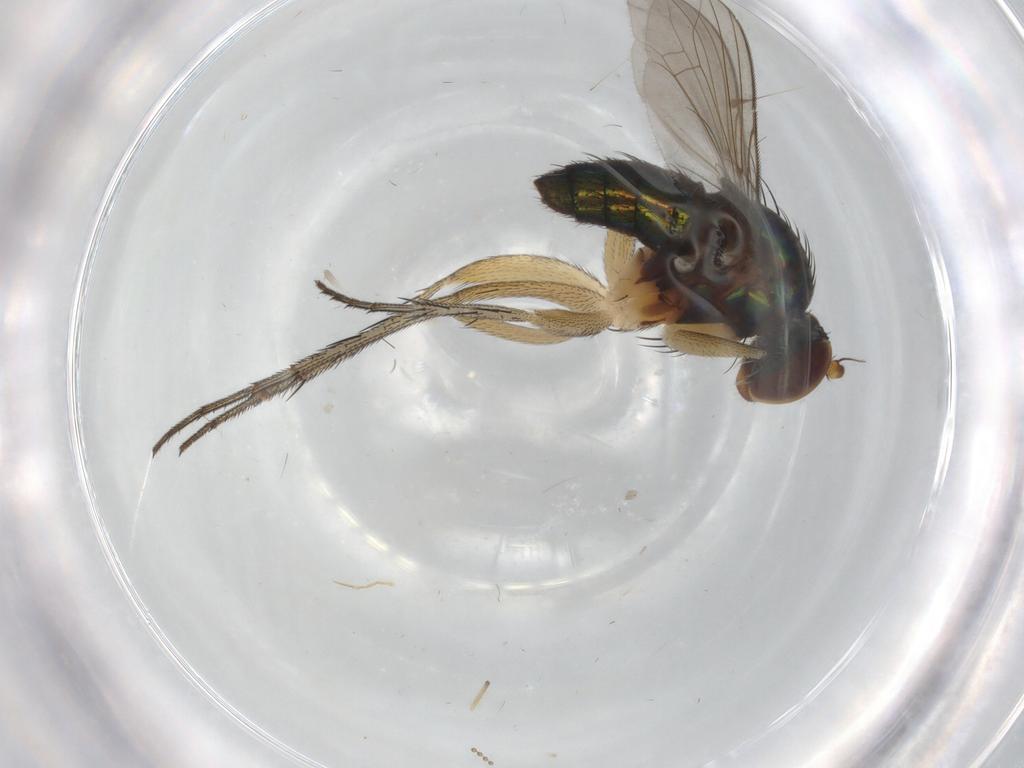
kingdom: Animalia
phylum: Arthropoda
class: Insecta
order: Diptera
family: Dolichopodidae
